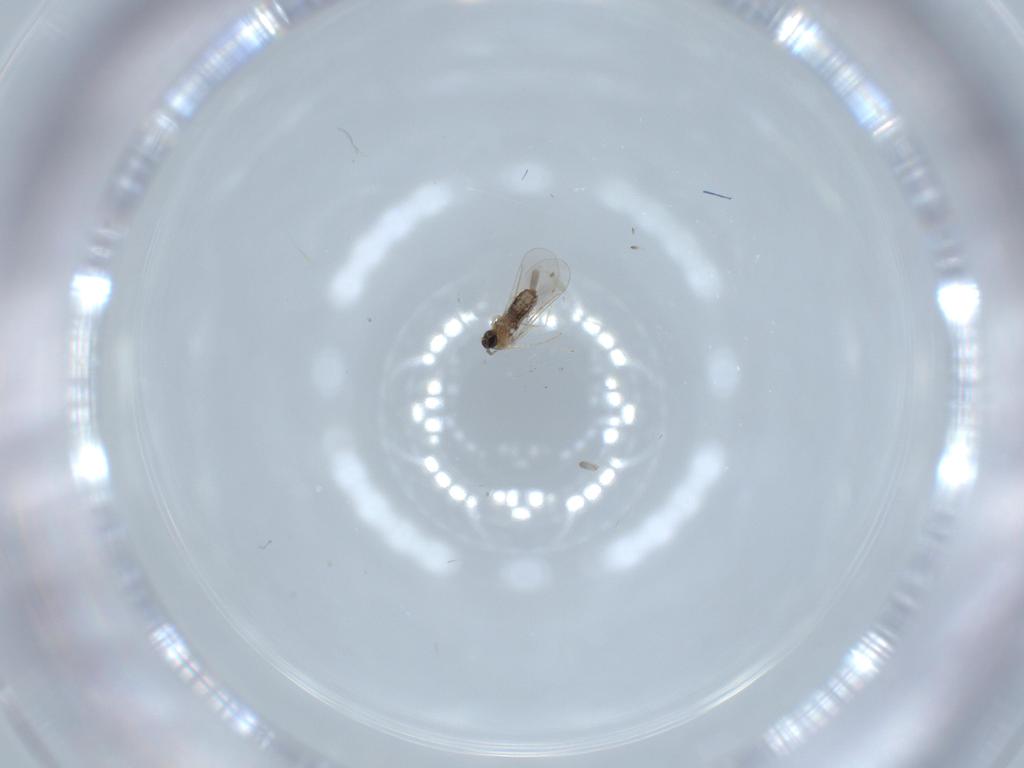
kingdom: Animalia
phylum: Arthropoda
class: Insecta
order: Diptera
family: Cecidomyiidae
